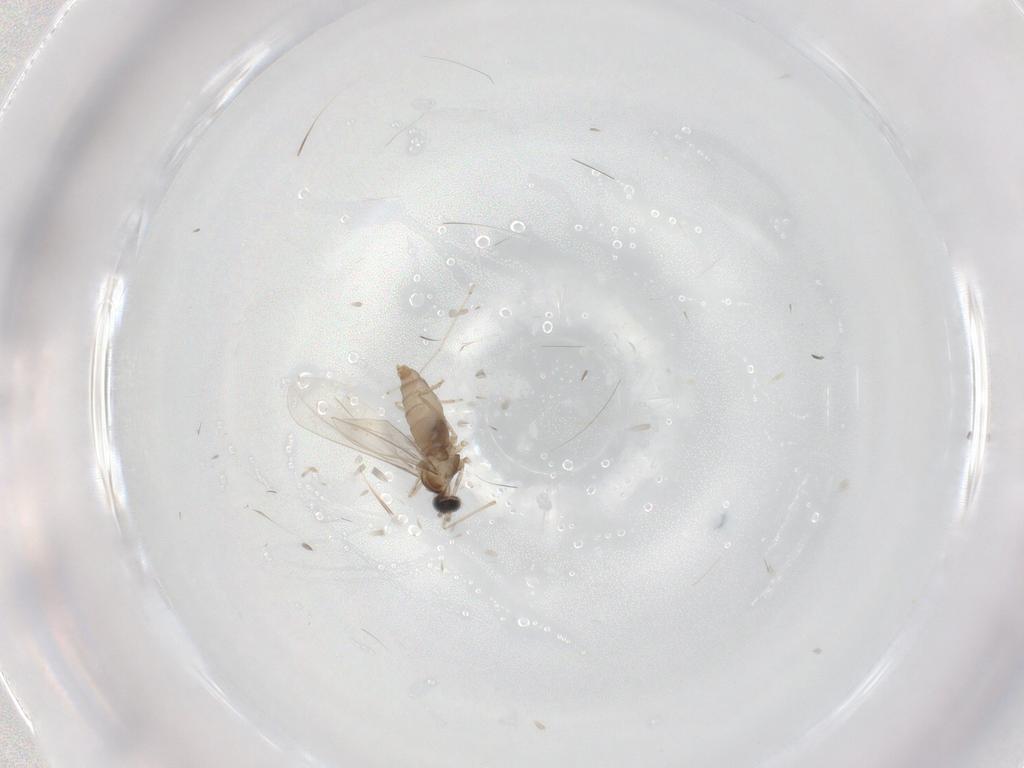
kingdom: Animalia
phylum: Arthropoda
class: Insecta
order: Diptera
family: Cecidomyiidae
